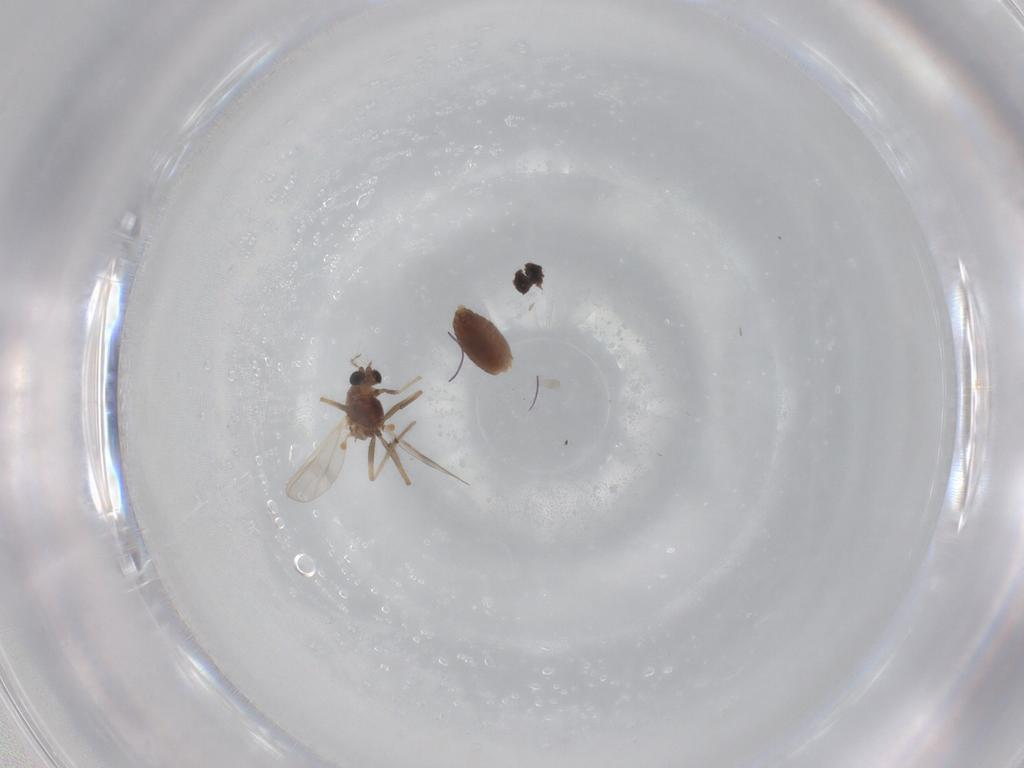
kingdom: Animalia
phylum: Arthropoda
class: Insecta
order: Diptera
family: Chironomidae
